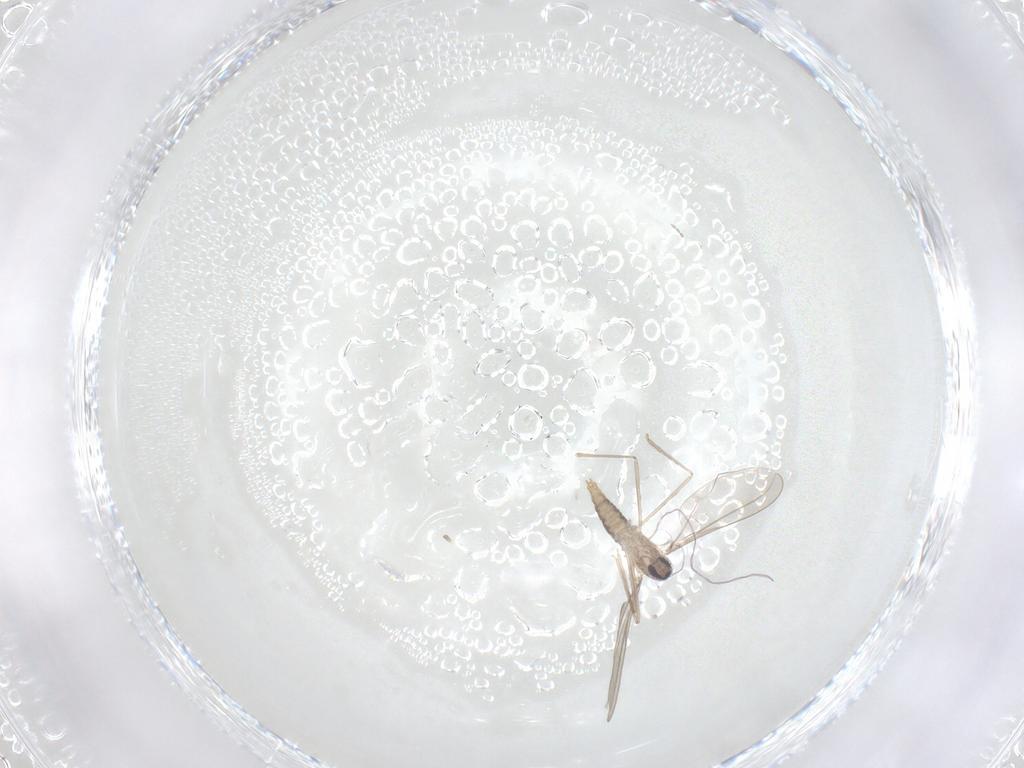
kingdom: Animalia
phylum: Arthropoda
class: Insecta
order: Diptera
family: Cecidomyiidae
